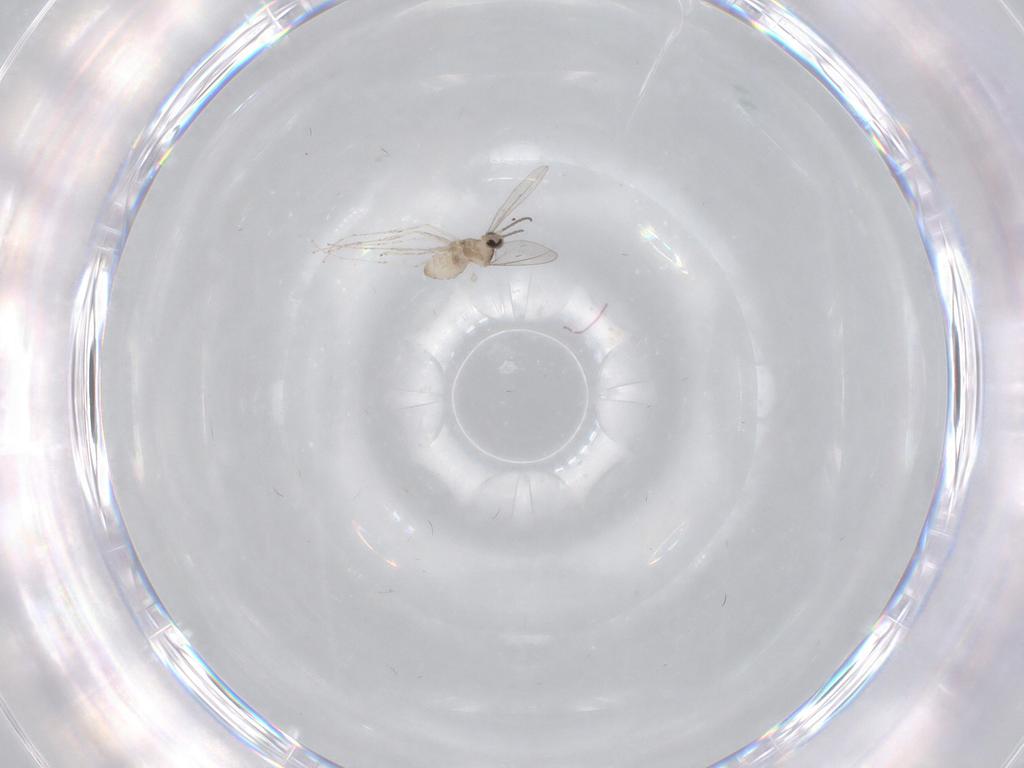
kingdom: Animalia
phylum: Arthropoda
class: Insecta
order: Diptera
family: Cecidomyiidae
